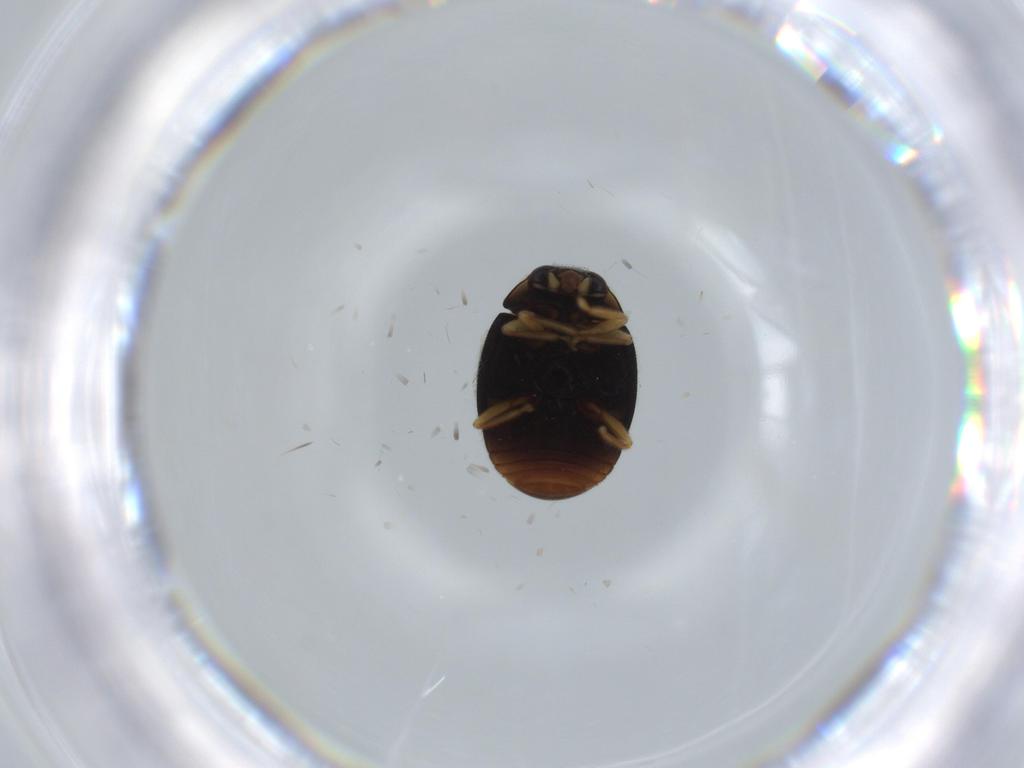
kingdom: Animalia
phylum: Arthropoda
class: Insecta
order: Coleoptera
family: Coccinellidae
